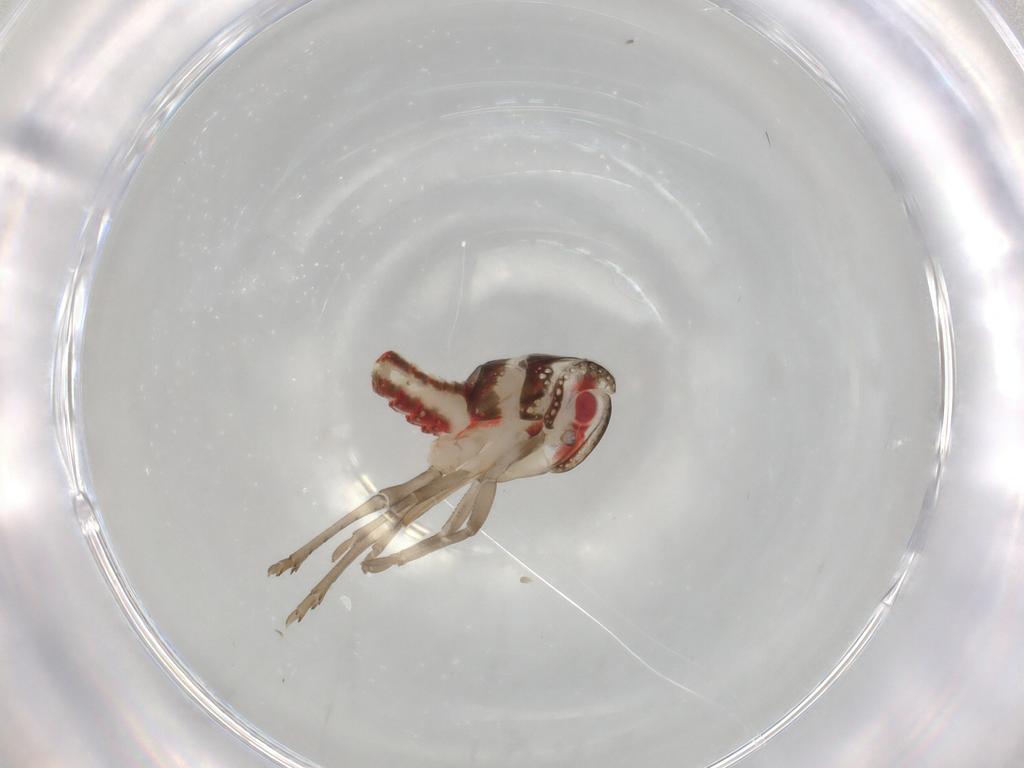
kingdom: Animalia
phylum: Arthropoda
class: Insecta
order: Hemiptera
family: Nogodinidae
